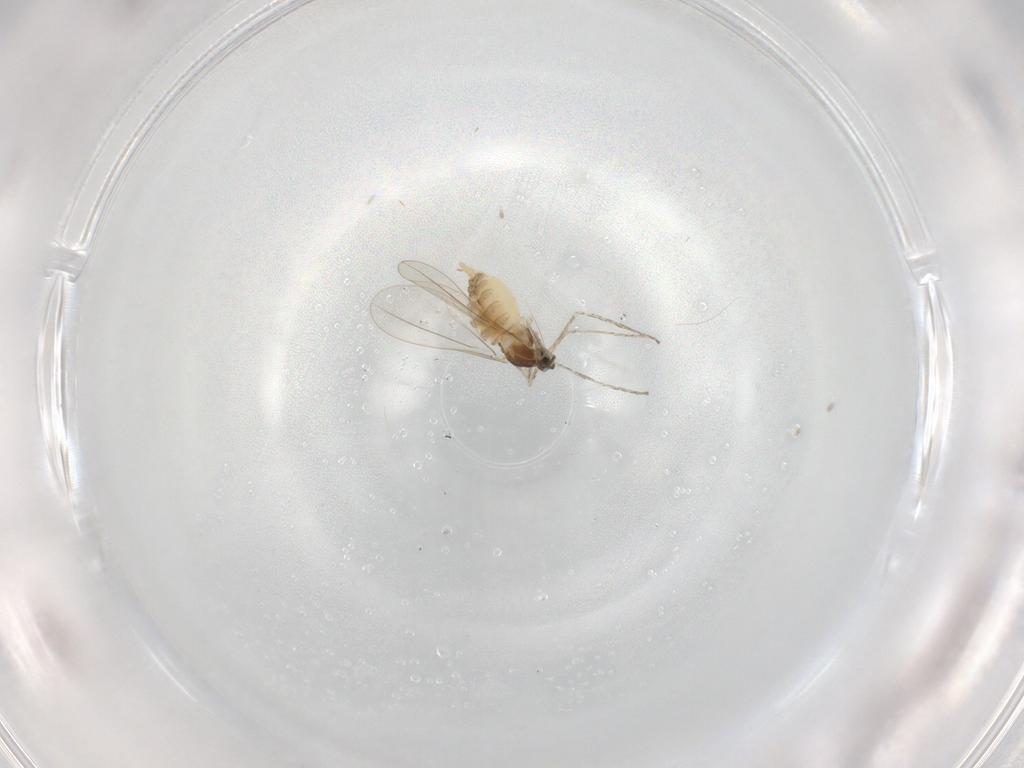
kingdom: Animalia
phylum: Arthropoda
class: Insecta
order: Diptera
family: Cecidomyiidae
